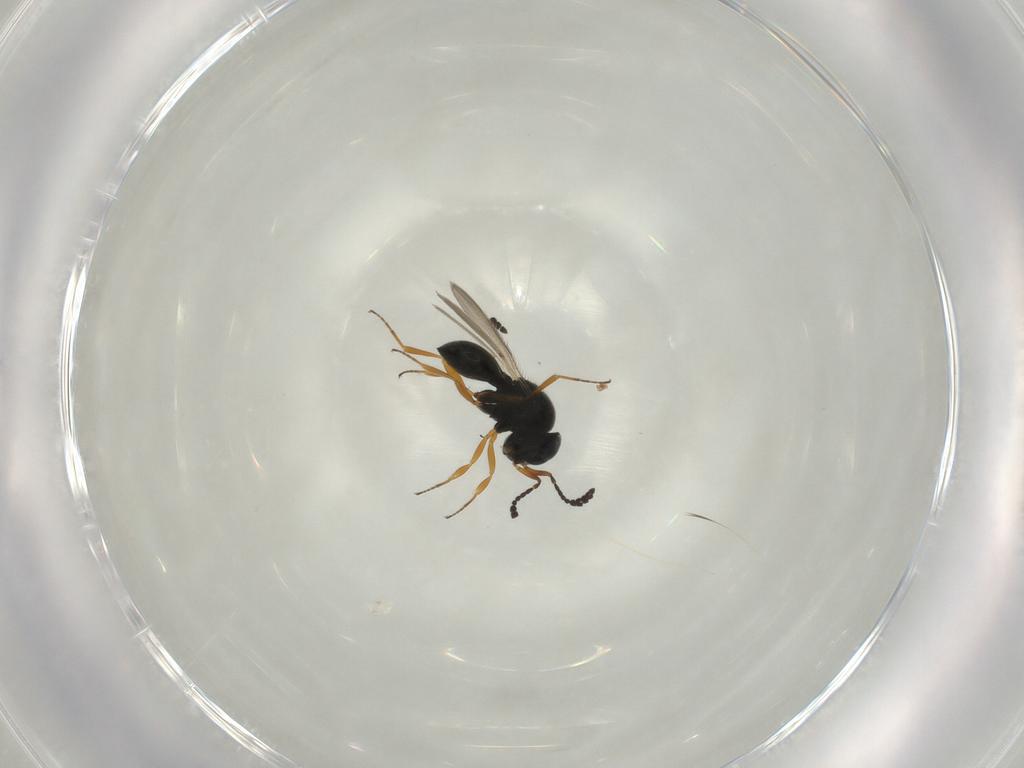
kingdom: Animalia
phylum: Arthropoda
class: Insecta
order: Hymenoptera
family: Scelionidae
